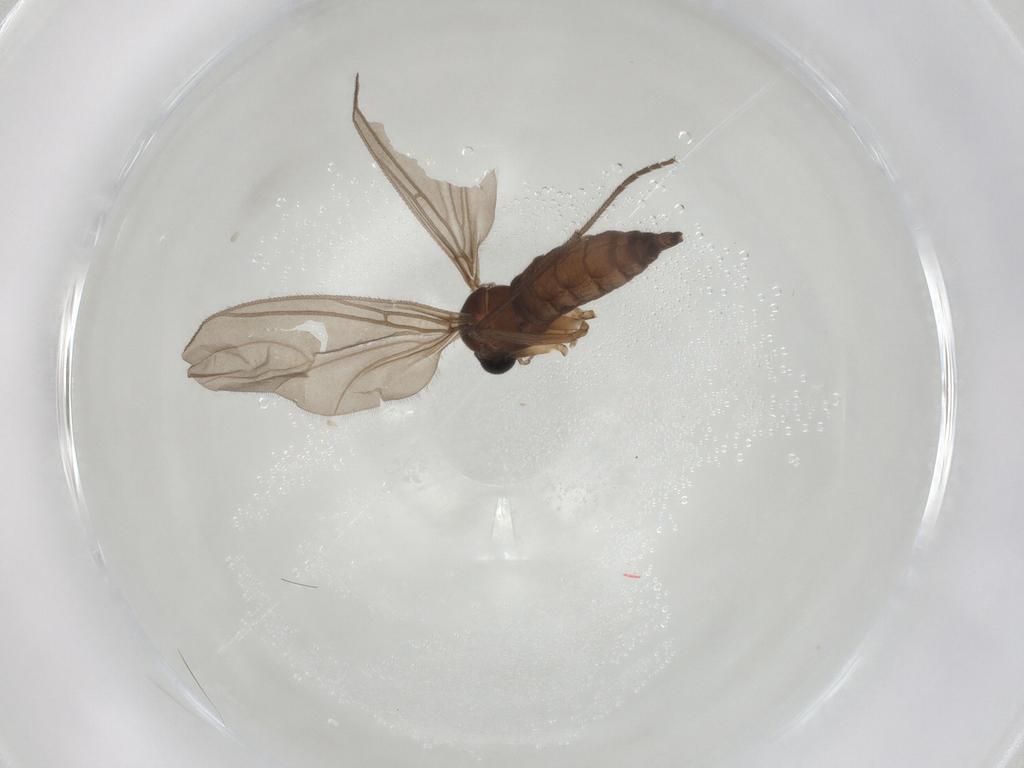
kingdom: Animalia
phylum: Arthropoda
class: Insecta
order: Diptera
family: Sciaridae
